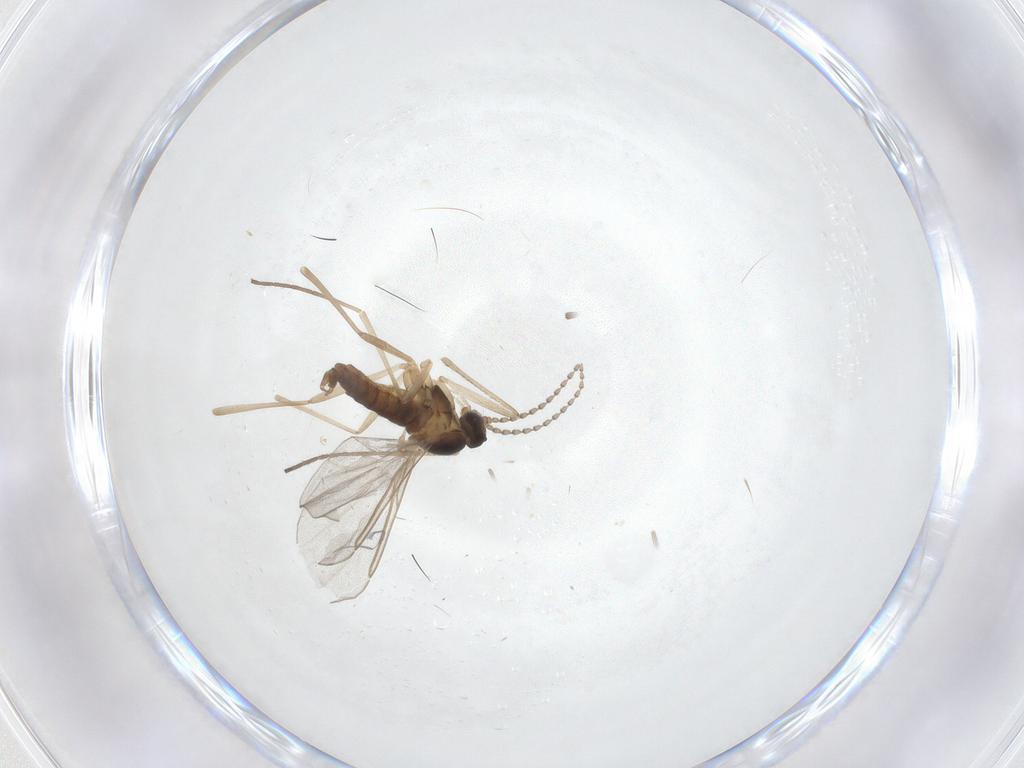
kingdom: Animalia
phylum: Arthropoda
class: Insecta
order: Diptera
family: Cecidomyiidae
